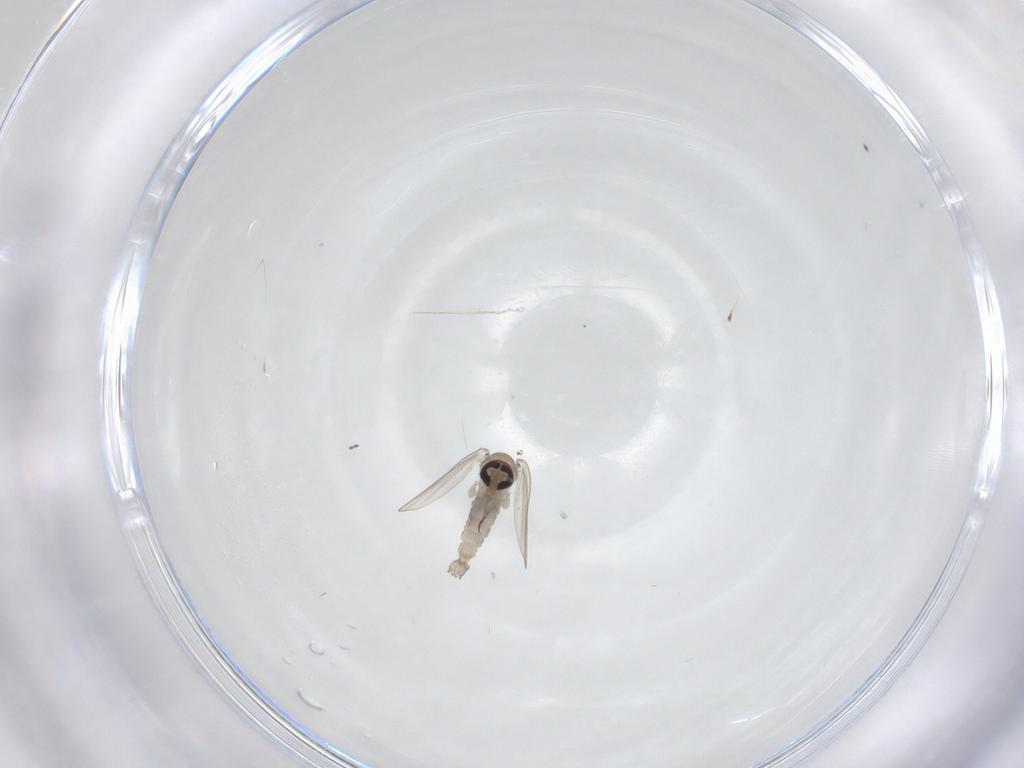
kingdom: Animalia
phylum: Arthropoda
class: Insecta
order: Diptera
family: Psychodidae
